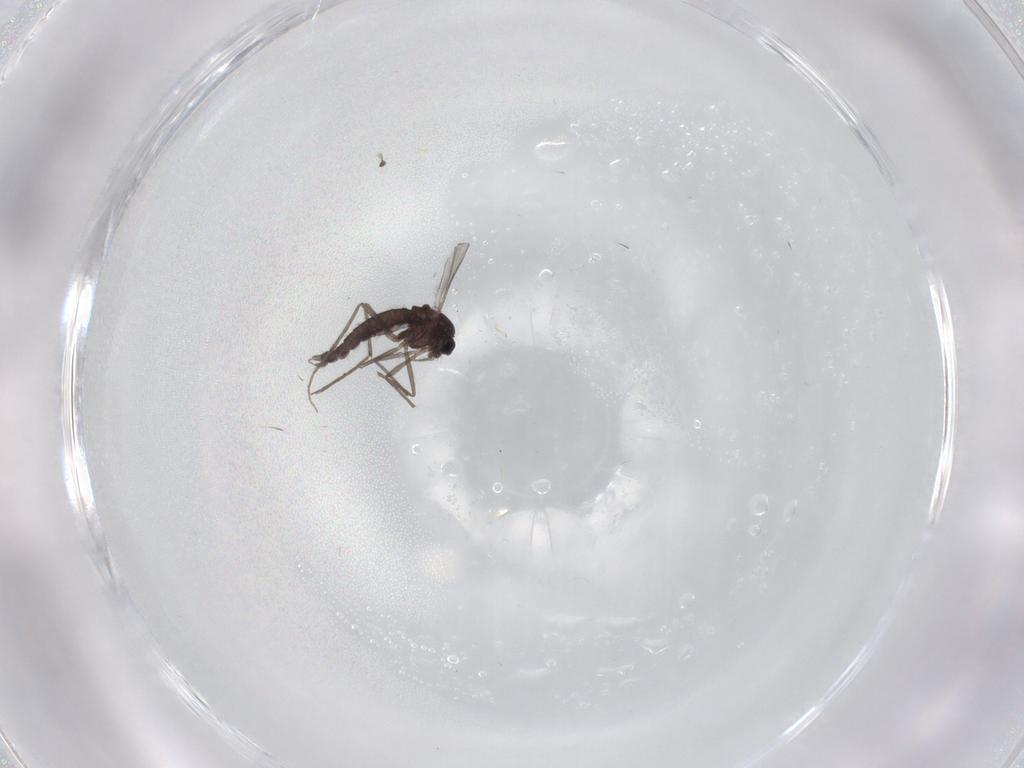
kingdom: Animalia
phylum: Arthropoda
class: Insecta
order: Diptera
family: Chironomidae
